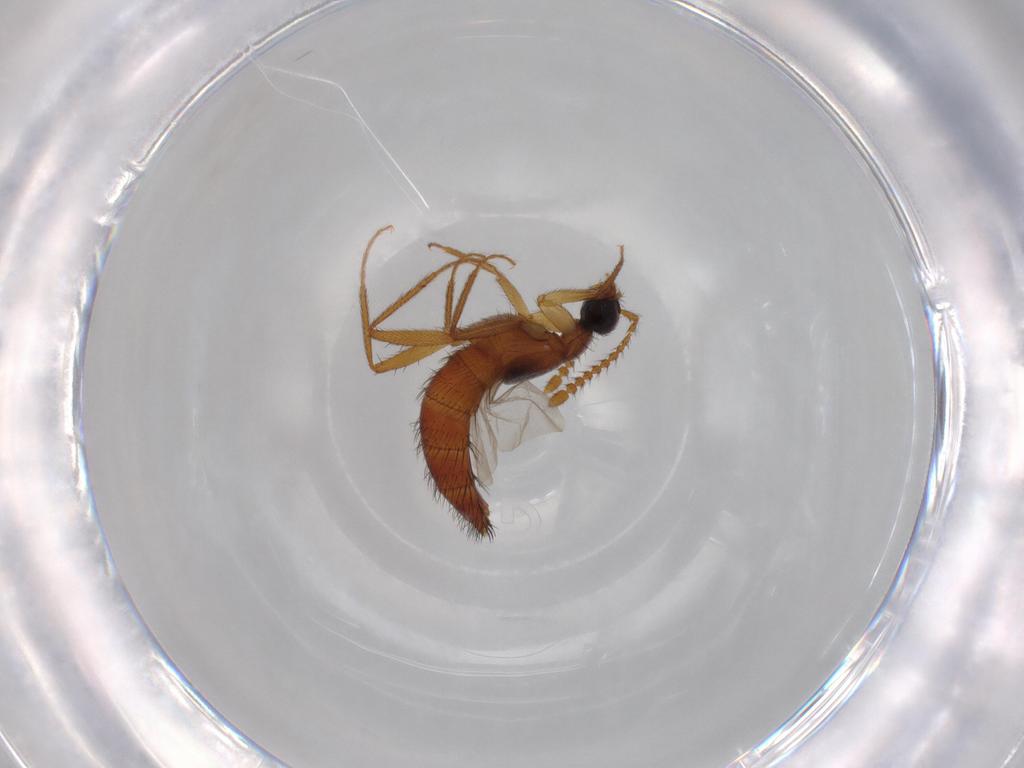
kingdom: Animalia
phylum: Arthropoda
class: Insecta
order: Coleoptera
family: Staphylinidae
